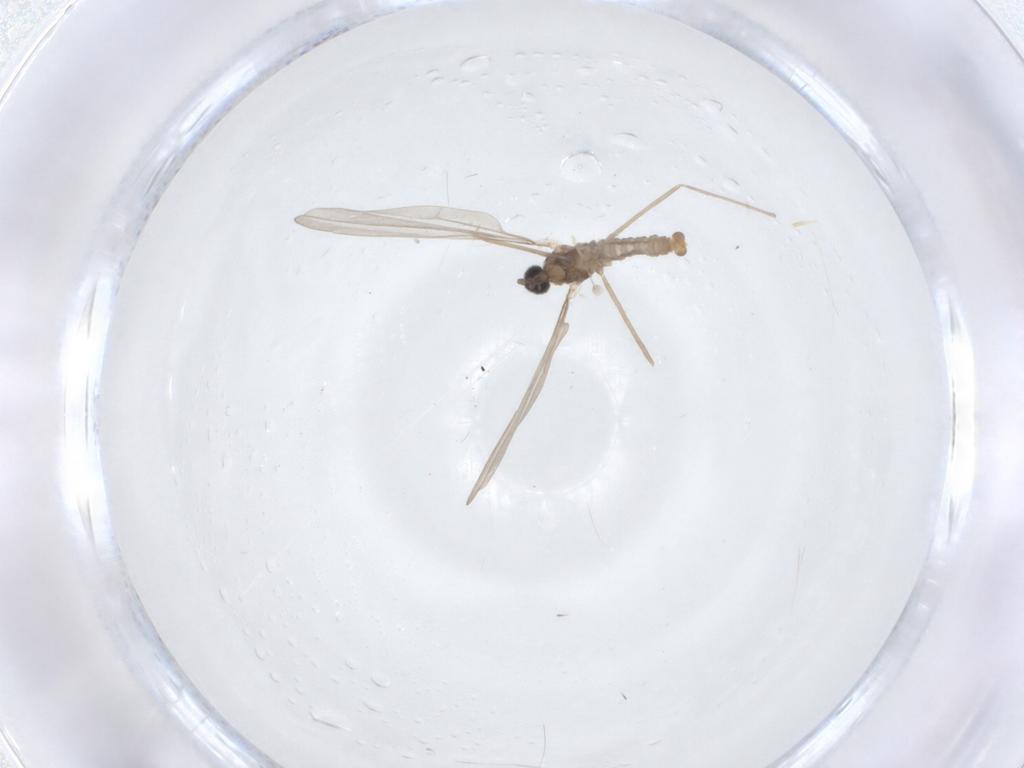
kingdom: Animalia
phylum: Arthropoda
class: Insecta
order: Diptera
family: Cecidomyiidae
